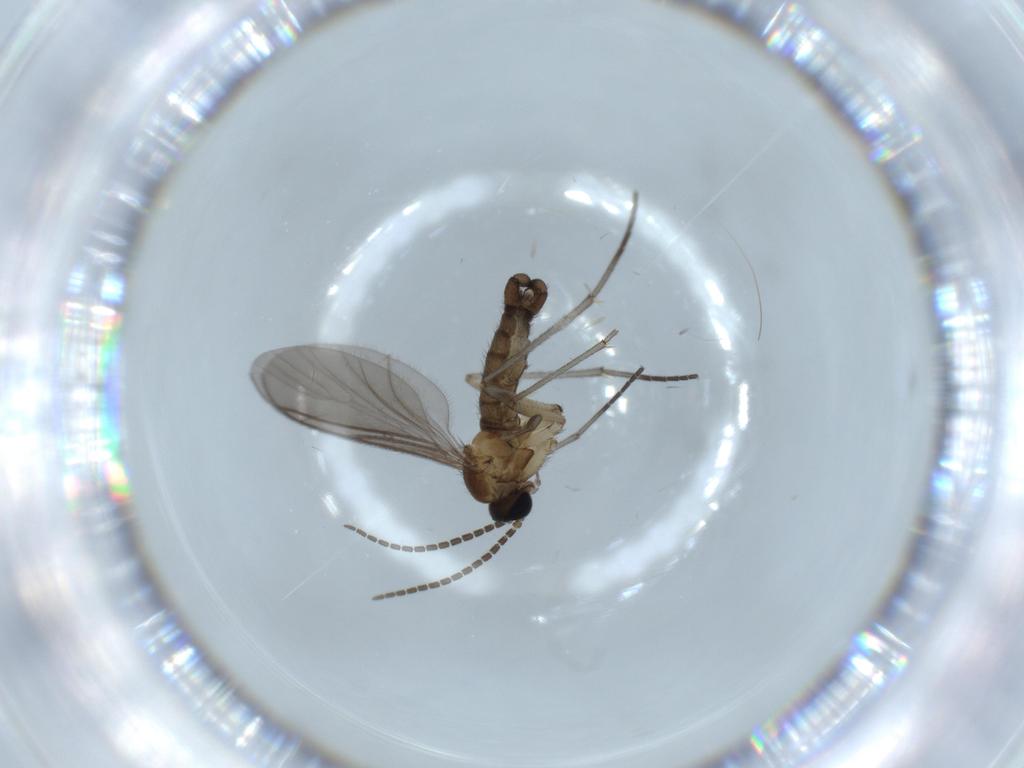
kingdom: Animalia
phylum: Arthropoda
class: Insecta
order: Diptera
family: Sciaridae
